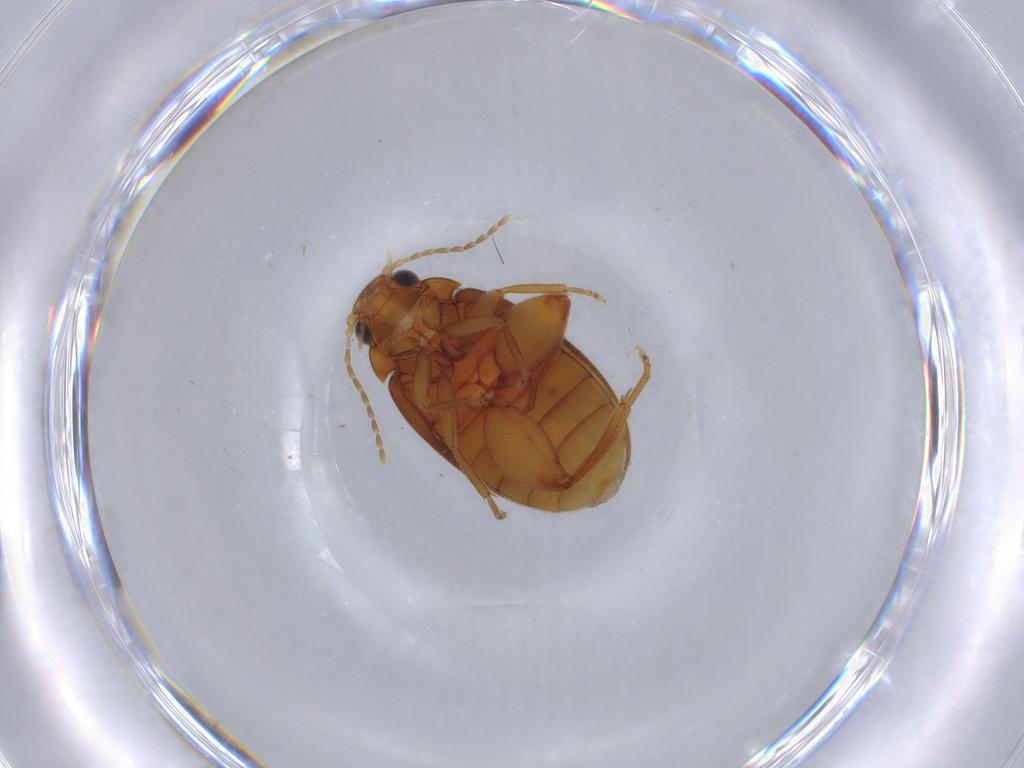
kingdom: Animalia
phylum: Arthropoda
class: Insecta
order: Coleoptera
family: Scirtidae
